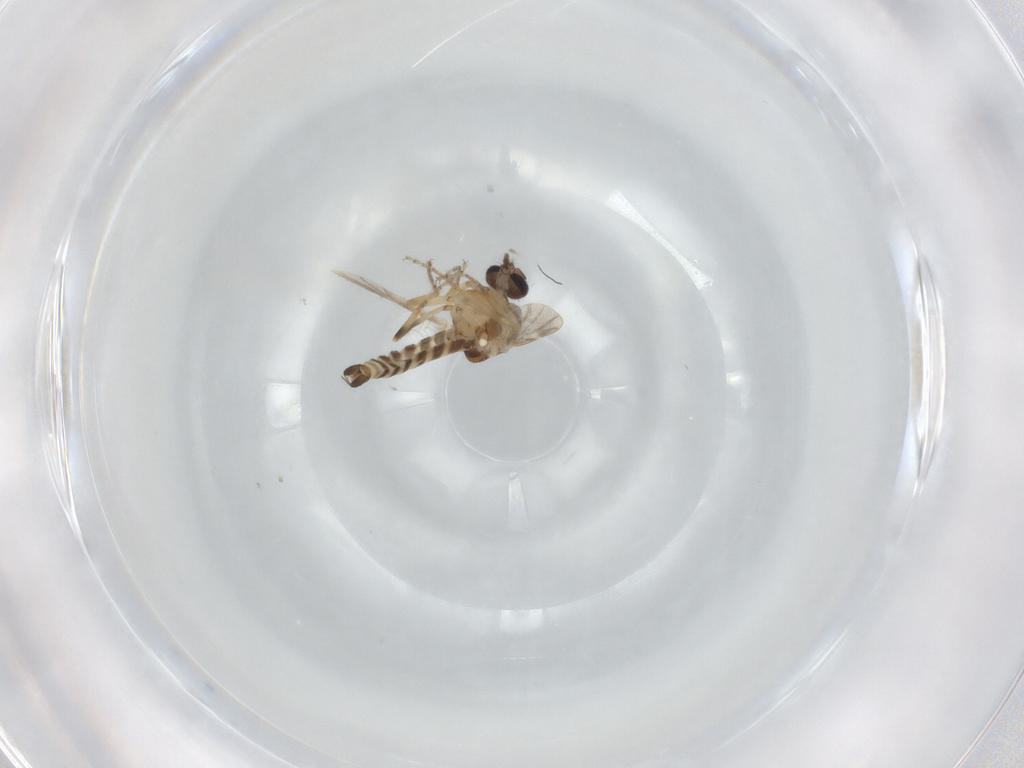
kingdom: Animalia
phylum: Arthropoda
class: Insecta
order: Diptera
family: Ceratopogonidae
